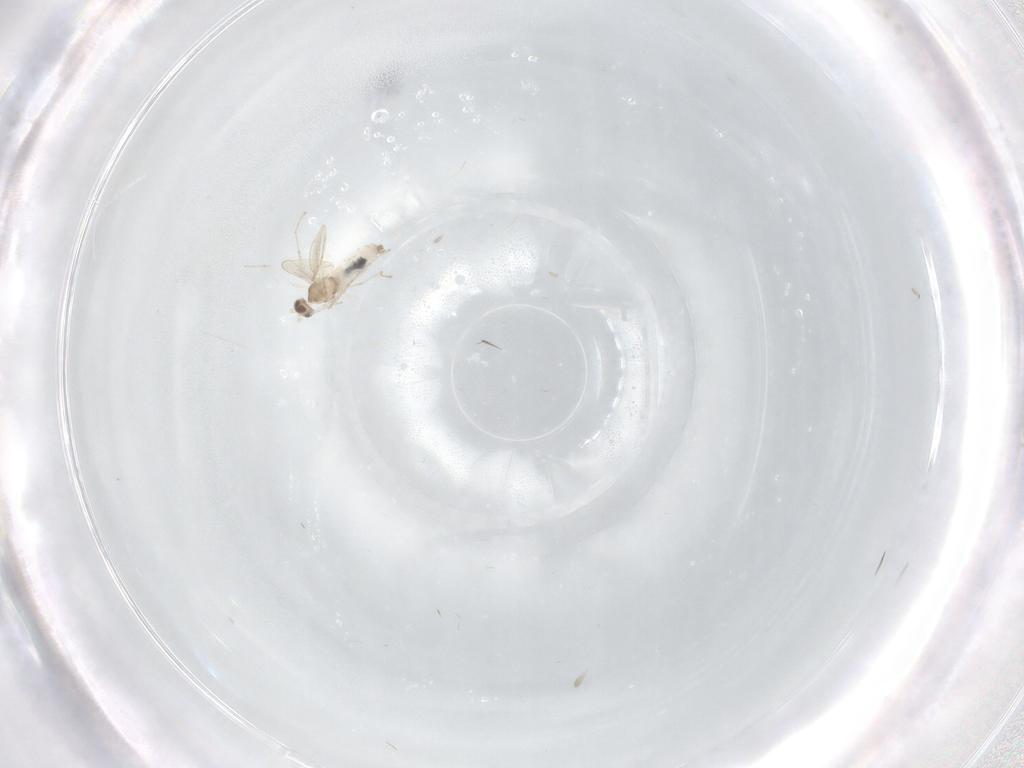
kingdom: Animalia
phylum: Arthropoda
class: Insecta
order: Diptera
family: Cecidomyiidae
